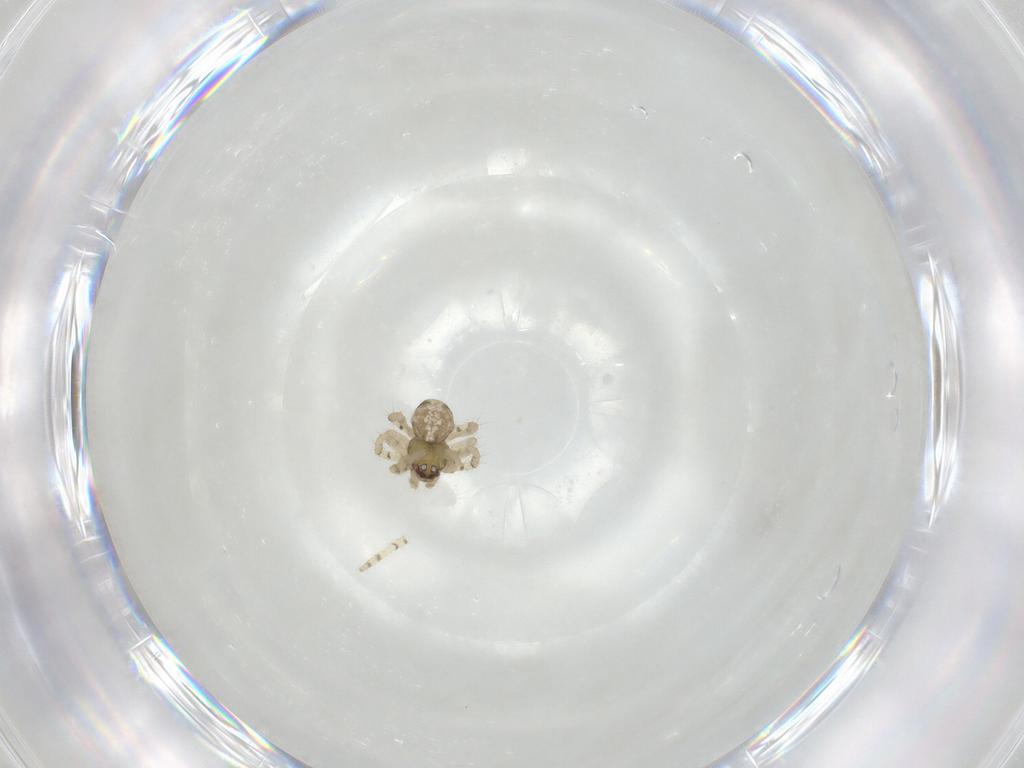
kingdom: Animalia
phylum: Arthropoda
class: Arachnida
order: Araneae
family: Theridiidae
